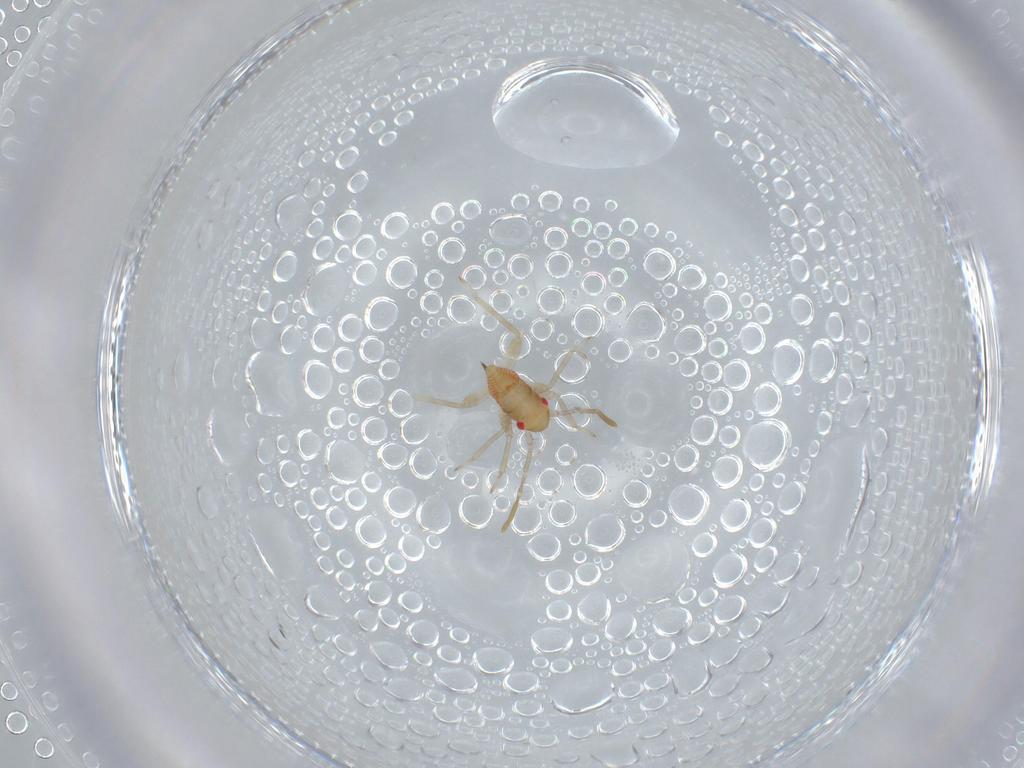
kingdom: Animalia
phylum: Arthropoda
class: Insecta
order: Hemiptera
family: Miridae
